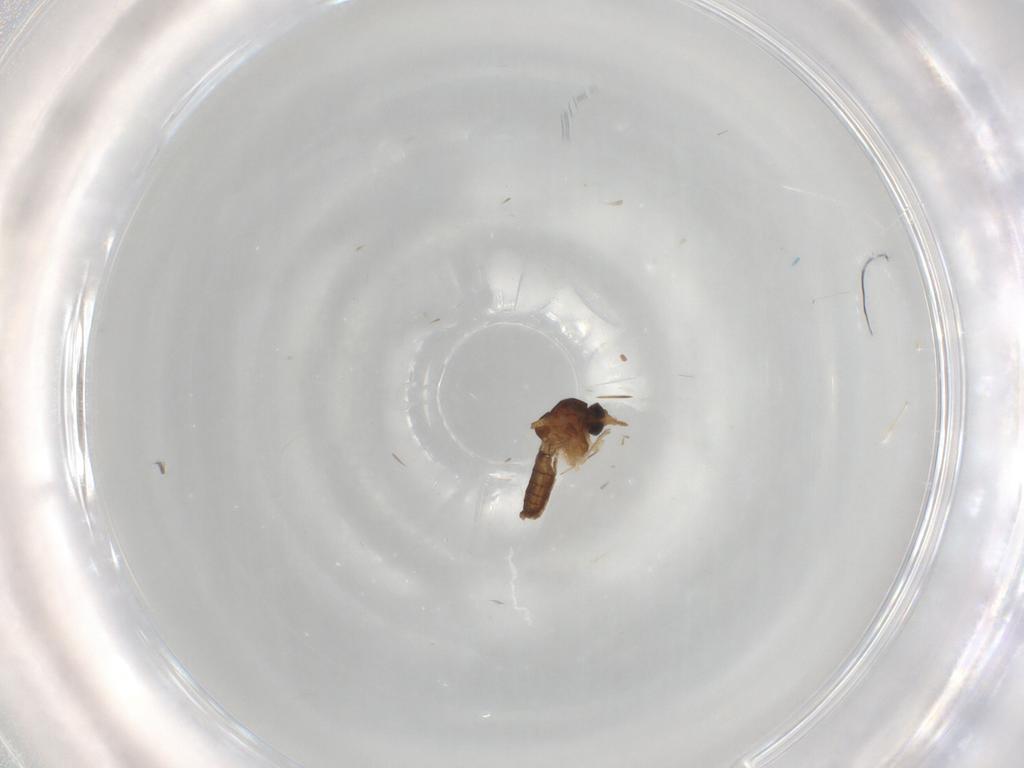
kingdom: Animalia
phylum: Arthropoda
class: Insecta
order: Diptera
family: Ceratopogonidae
